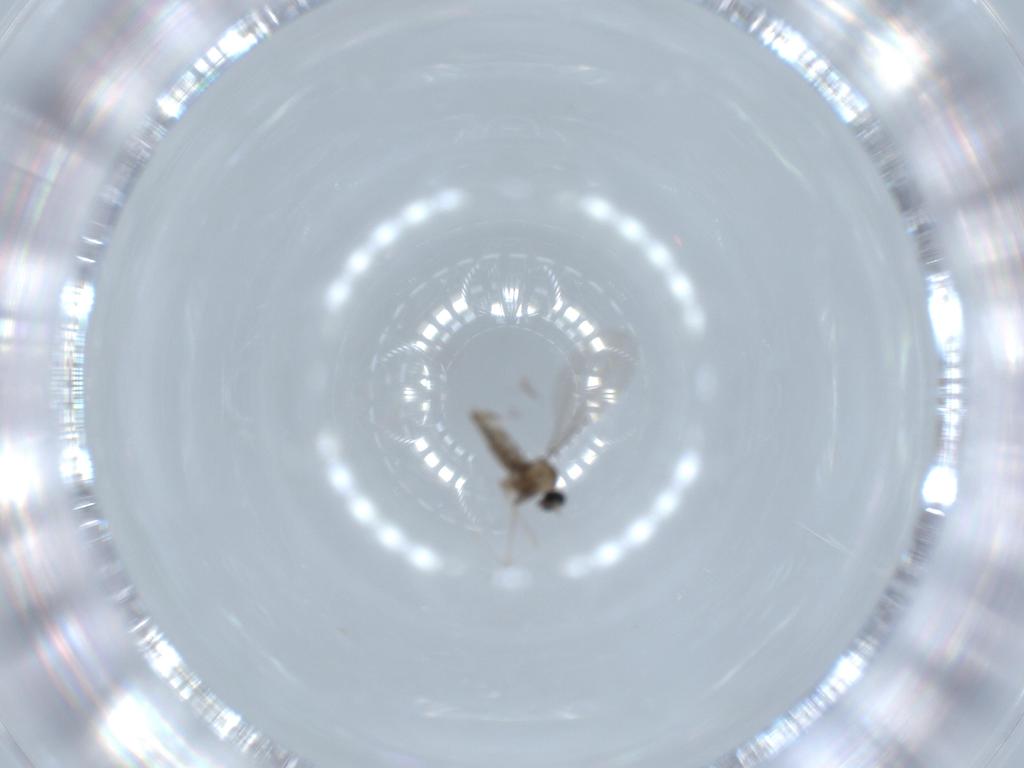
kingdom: Animalia
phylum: Arthropoda
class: Insecta
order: Diptera
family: Cecidomyiidae
